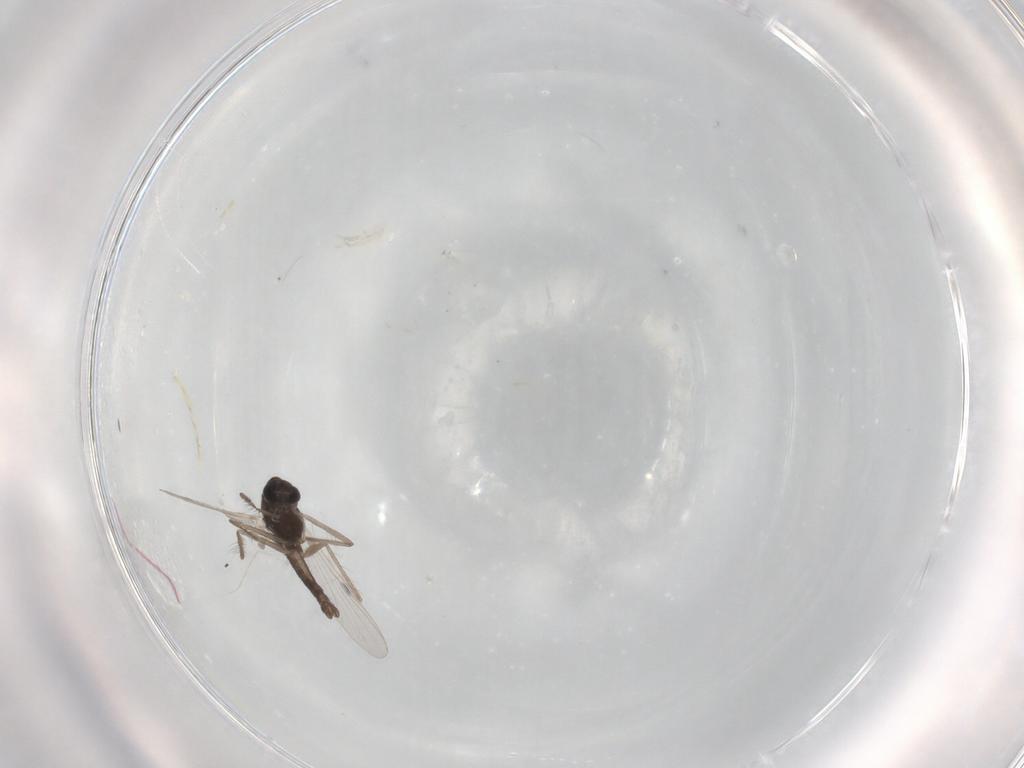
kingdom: Animalia
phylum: Arthropoda
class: Insecta
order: Diptera
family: Chironomidae
